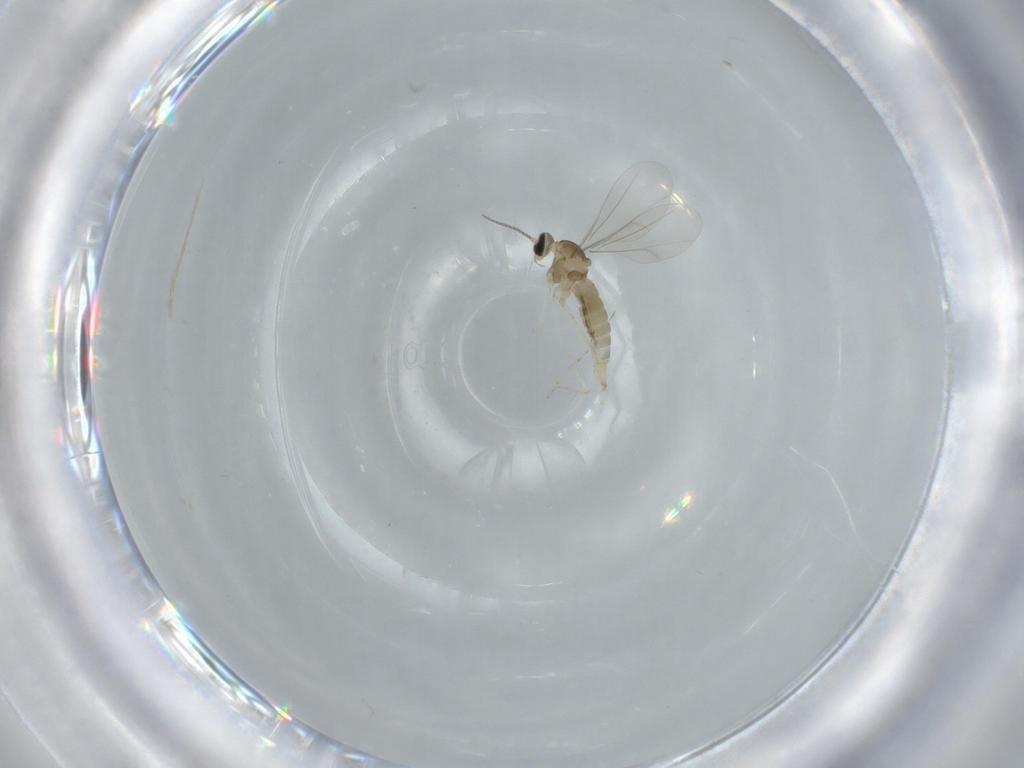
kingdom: Animalia
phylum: Arthropoda
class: Insecta
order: Diptera
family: Cecidomyiidae
